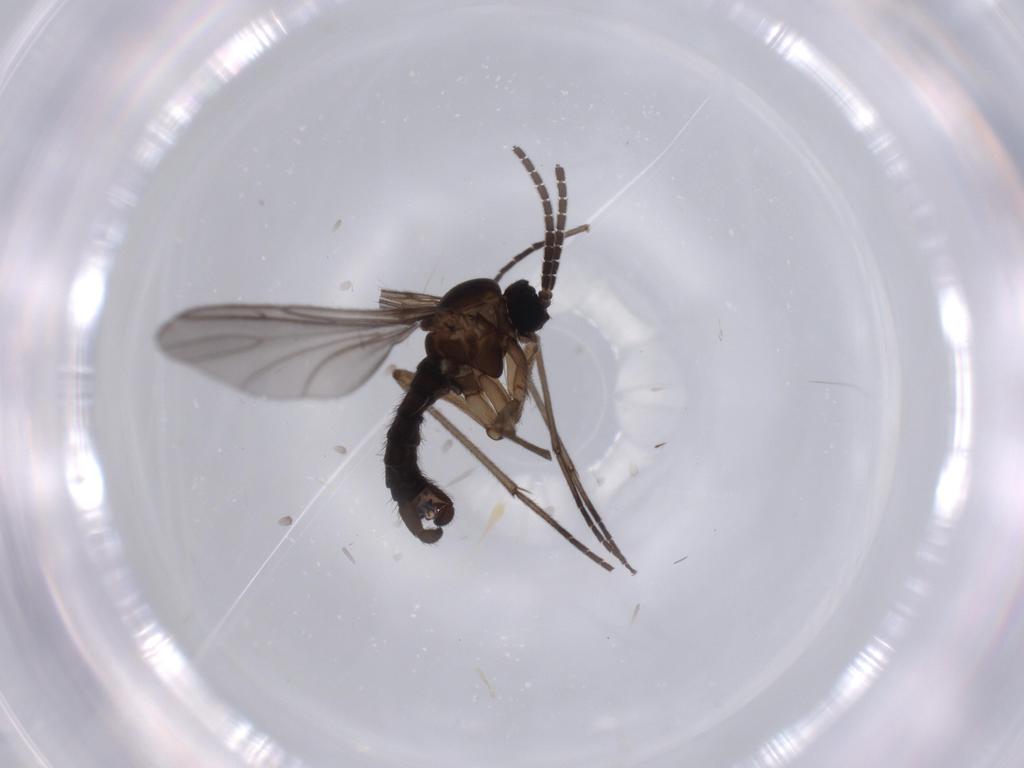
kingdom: Animalia
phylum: Arthropoda
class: Insecta
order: Diptera
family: Sciaridae
